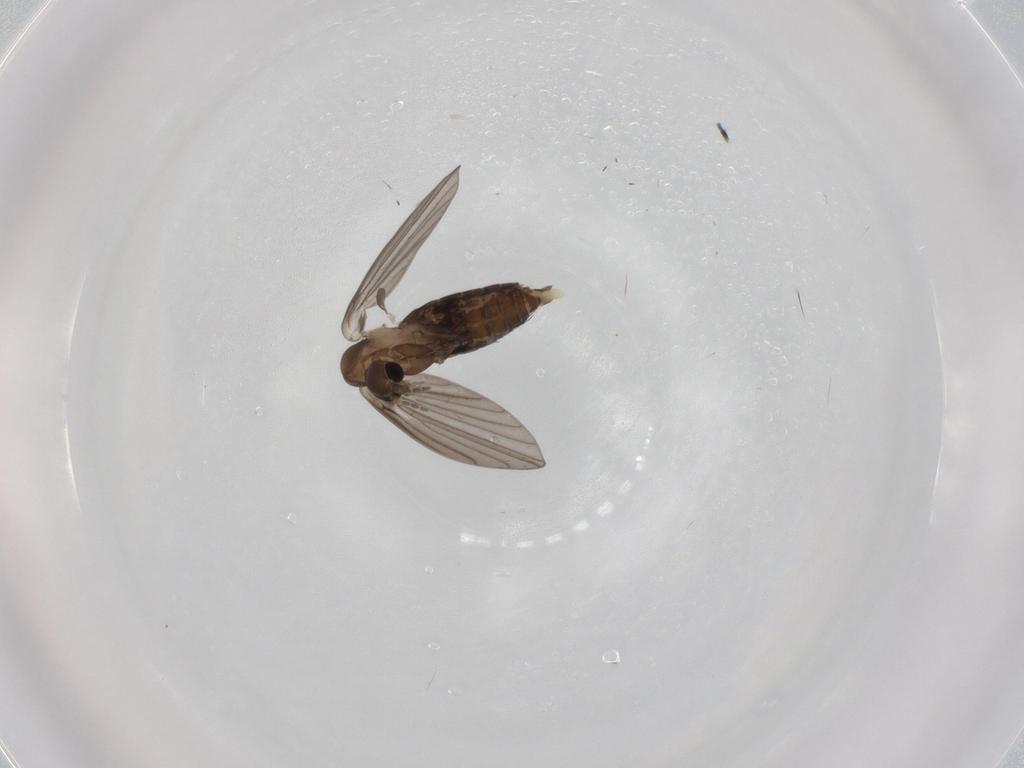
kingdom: Animalia
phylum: Arthropoda
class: Insecta
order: Diptera
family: Psychodidae
